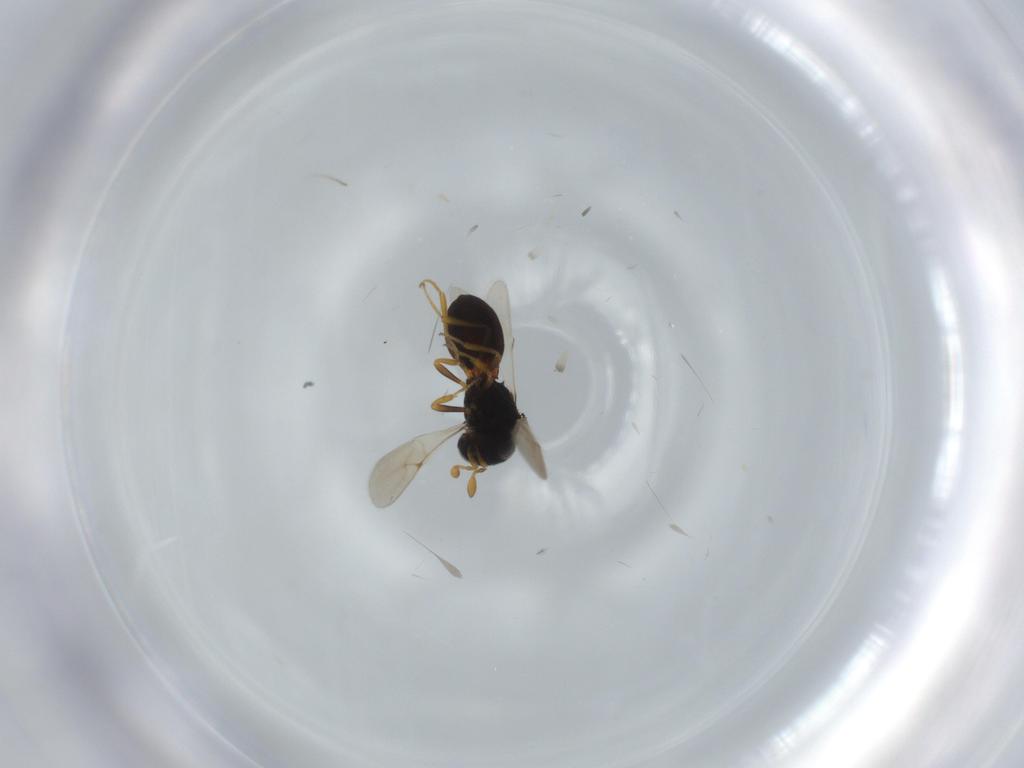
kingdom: Animalia
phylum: Arthropoda
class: Insecta
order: Hymenoptera
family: Scelionidae
